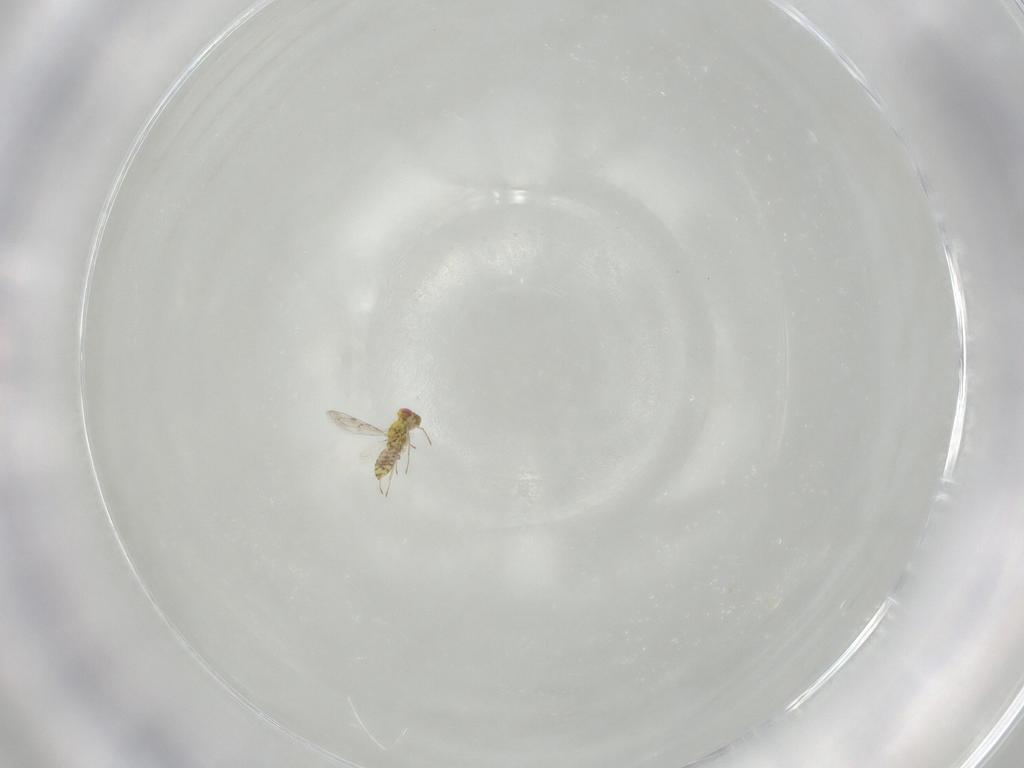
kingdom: Animalia
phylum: Arthropoda
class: Insecta
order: Hymenoptera
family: Eulophidae
